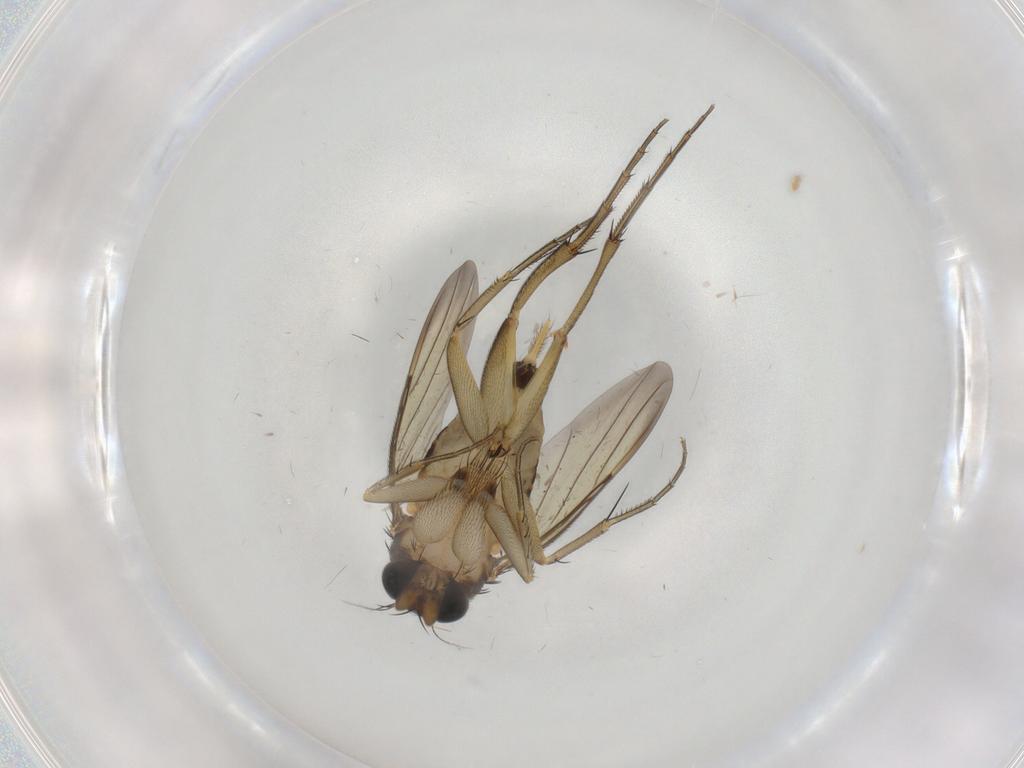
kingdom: Animalia
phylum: Arthropoda
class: Insecta
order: Diptera
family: Phoridae
